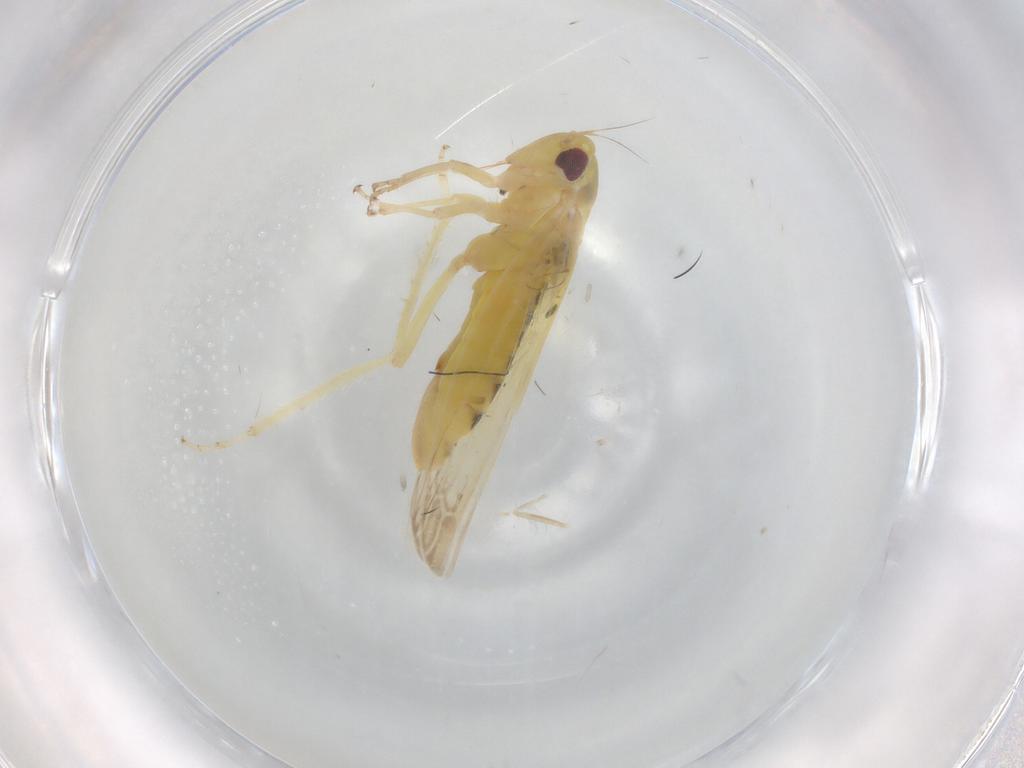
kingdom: Animalia
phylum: Arthropoda
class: Insecta
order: Hemiptera
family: Cicadellidae
